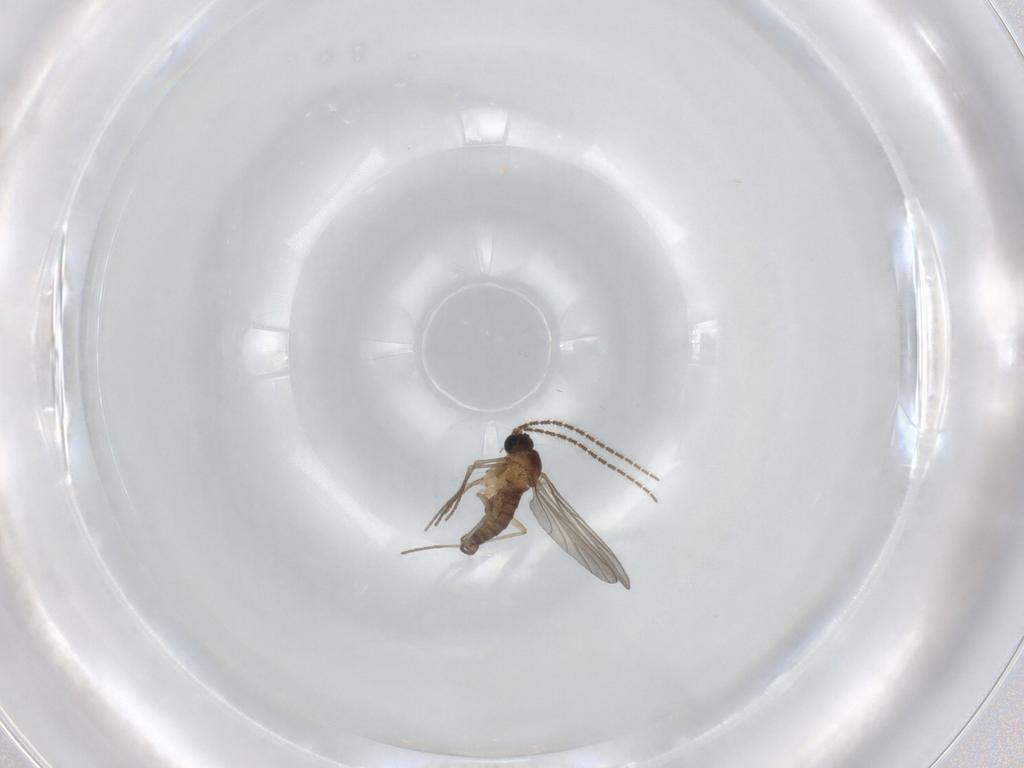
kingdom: Animalia
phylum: Arthropoda
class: Insecta
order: Diptera
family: Sciaridae
